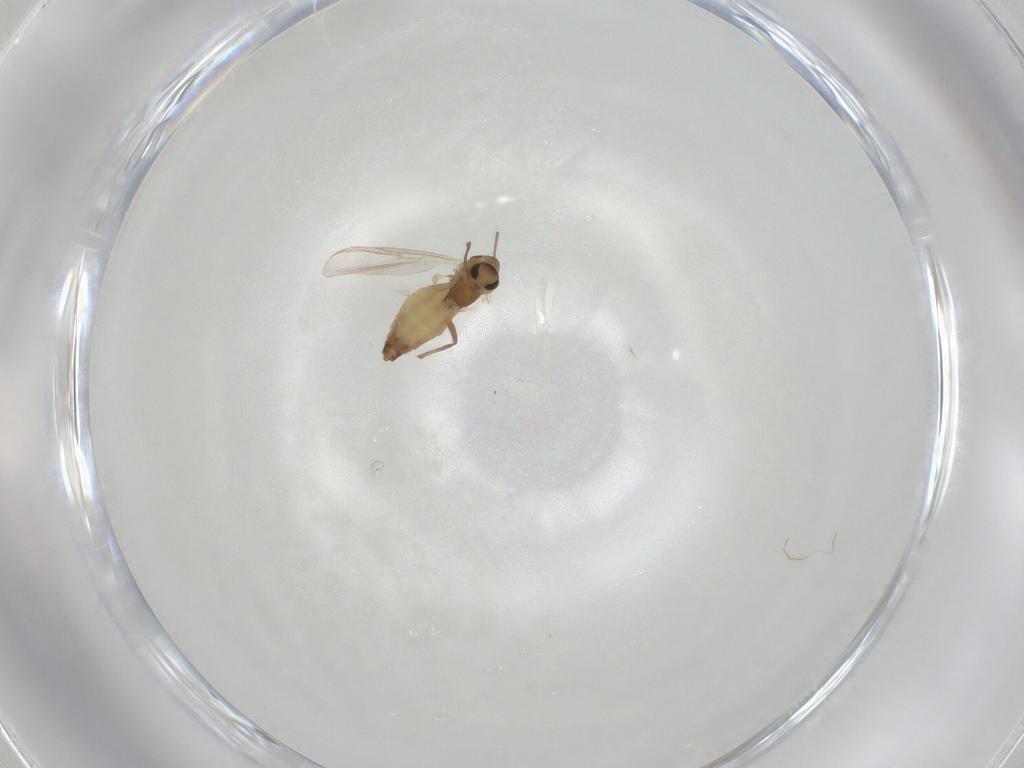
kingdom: Animalia
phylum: Arthropoda
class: Insecta
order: Diptera
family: Chironomidae
